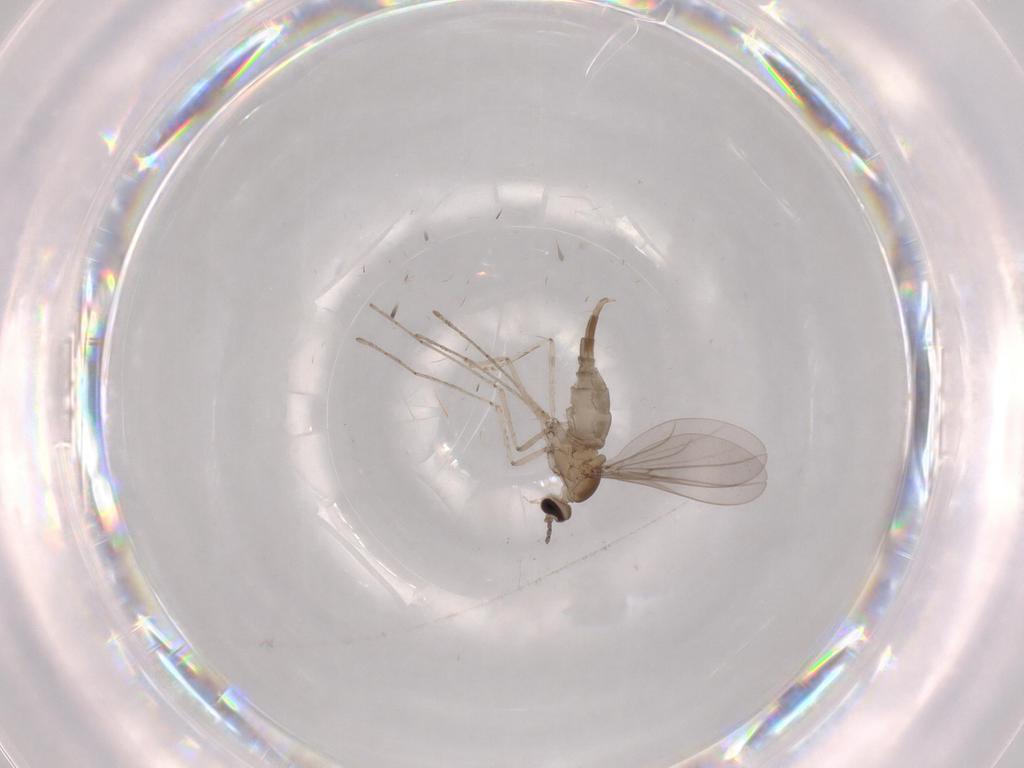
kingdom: Animalia
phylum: Arthropoda
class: Insecta
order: Diptera
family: Cecidomyiidae
